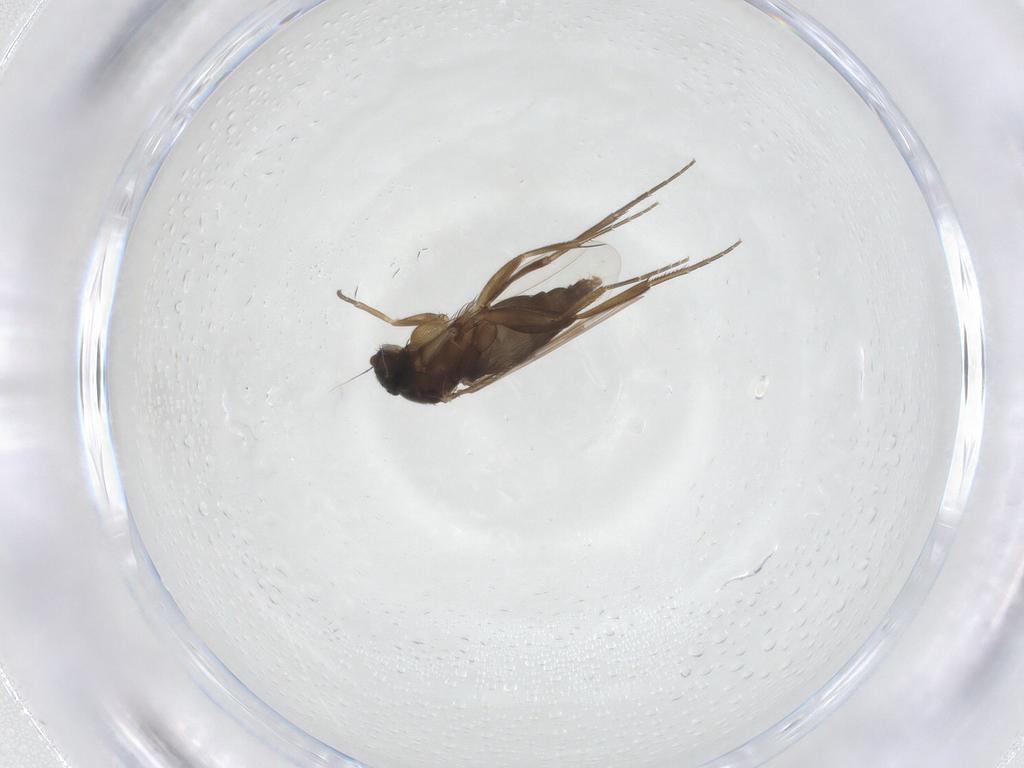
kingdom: Animalia
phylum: Arthropoda
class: Insecta
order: Diptera
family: Phoridae
